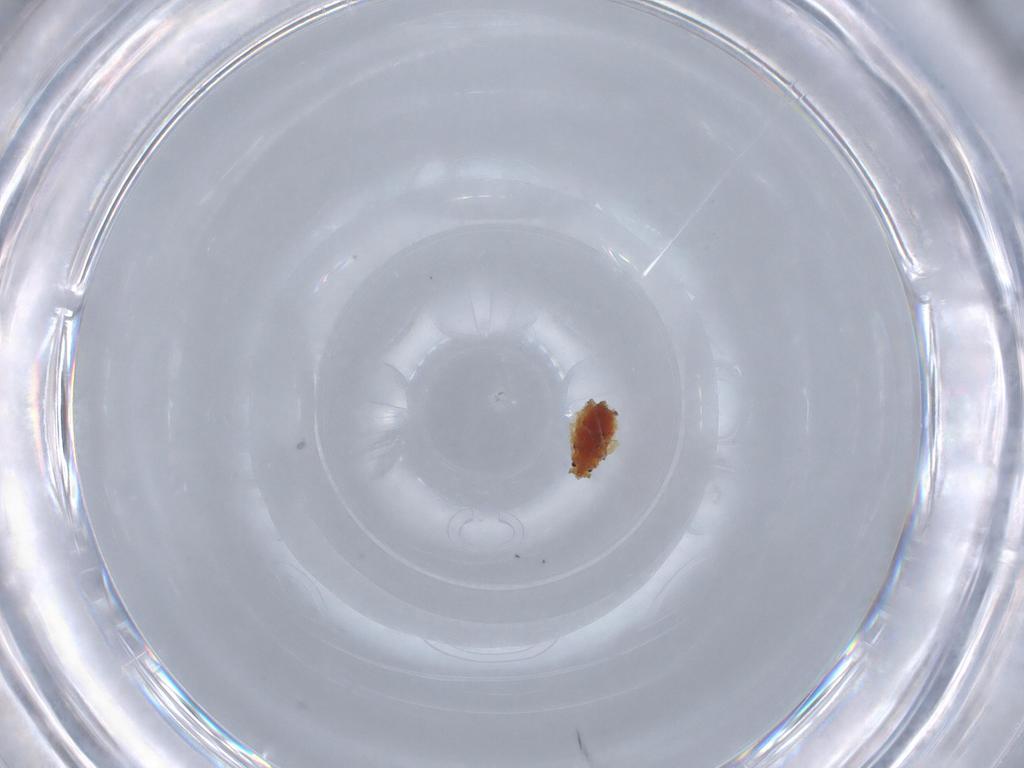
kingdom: Animalia
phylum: Arthropoda
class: Insecta
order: Hemiptera
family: Aphididae
